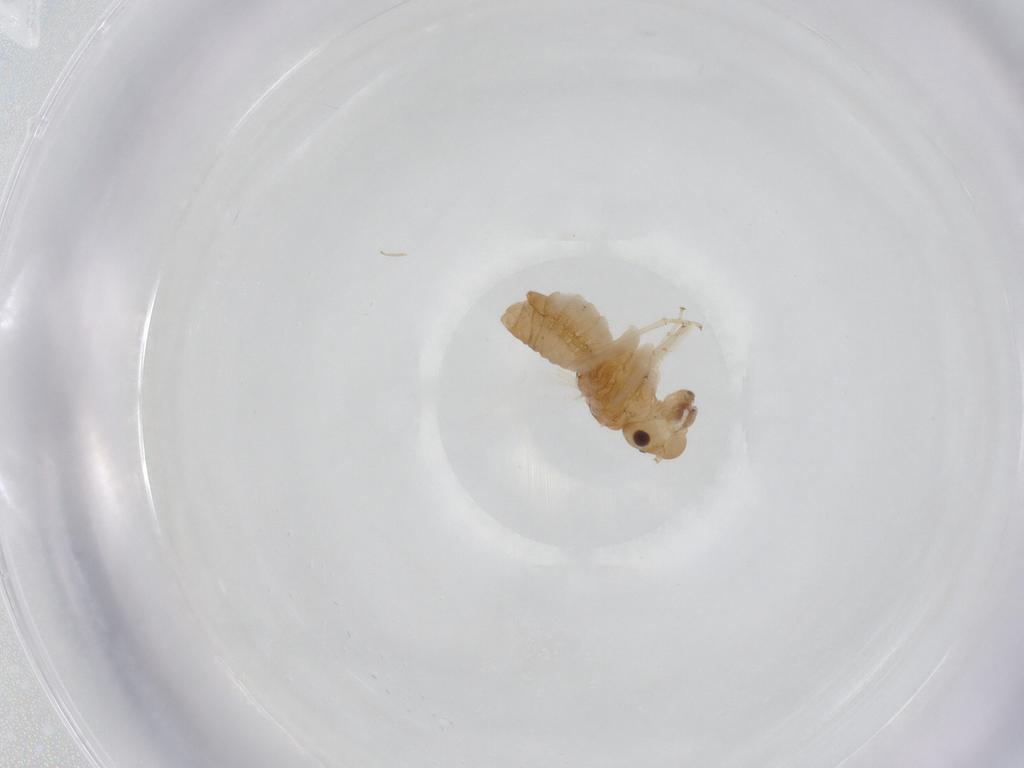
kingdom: Animalia
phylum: Arthropoda
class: Insecta
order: Psocodea
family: Philotarsidae
